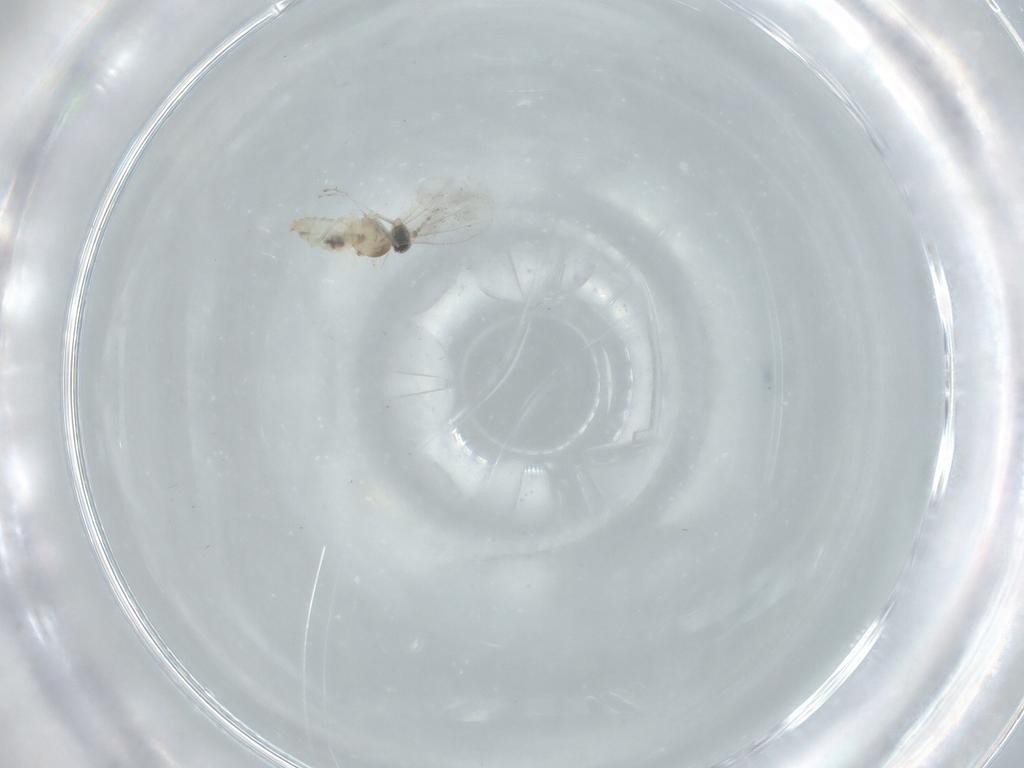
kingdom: Animalia
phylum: Arthropoda
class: Insecta
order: Diptera
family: Cecidomyiidae
